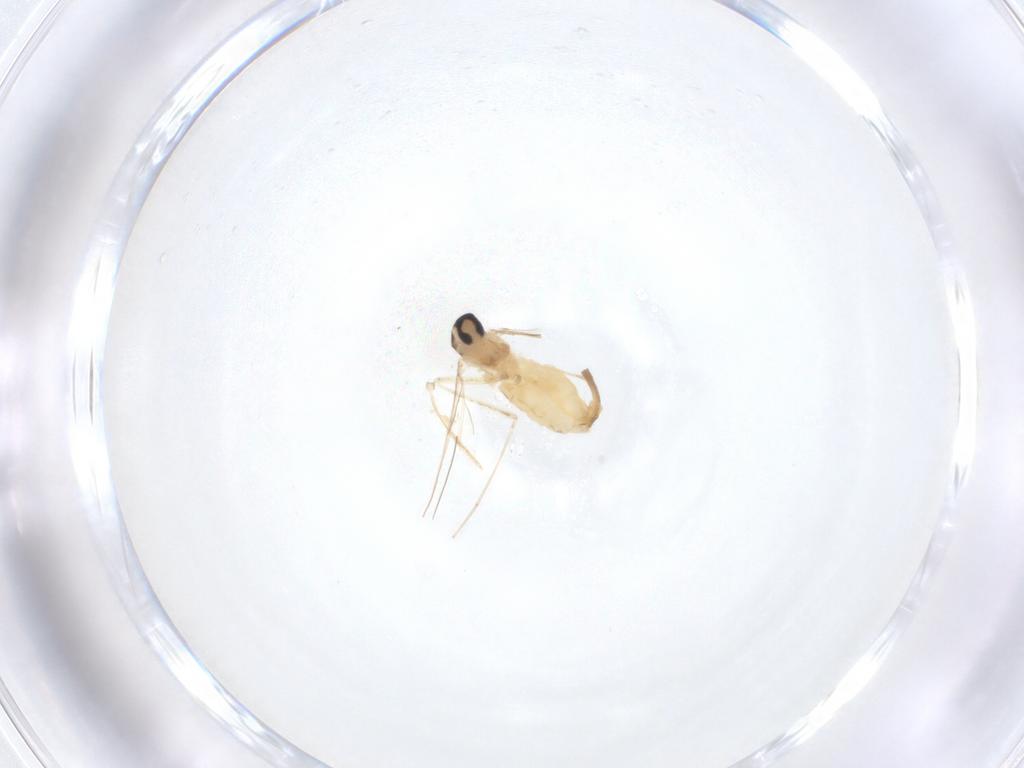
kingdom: Animalia
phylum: Arthropoda
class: Insecta
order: Diptera
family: Cecidomyiidae
